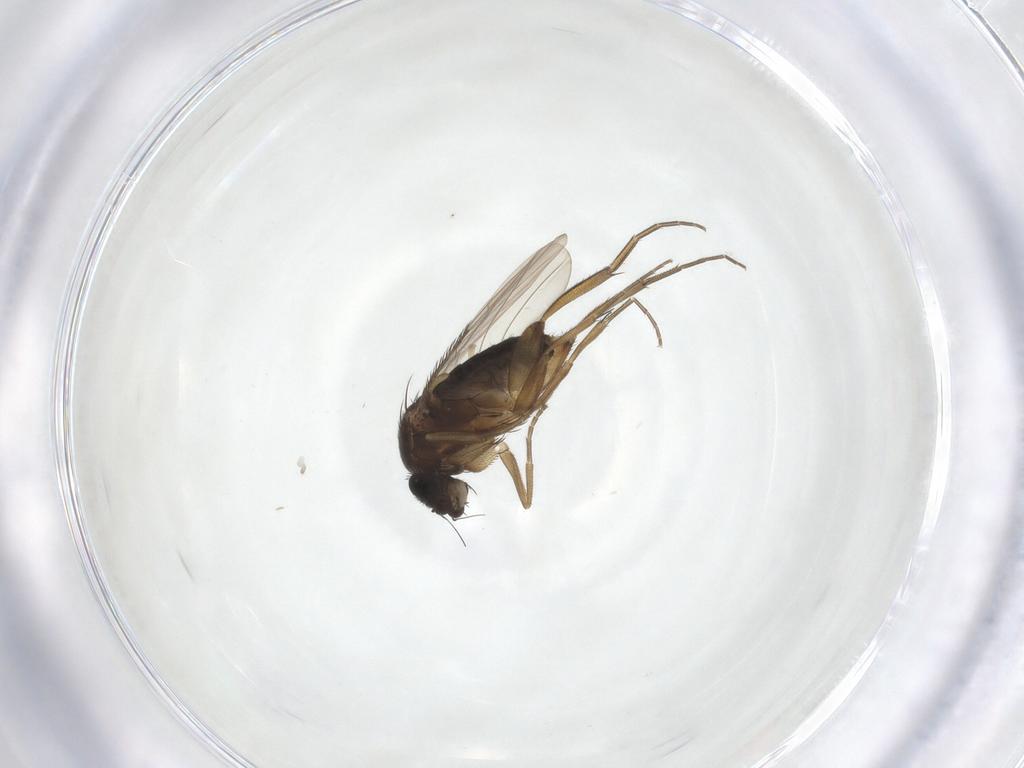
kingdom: Animalia
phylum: Arthropoda
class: Insecta
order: Diptera
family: Phoridae
